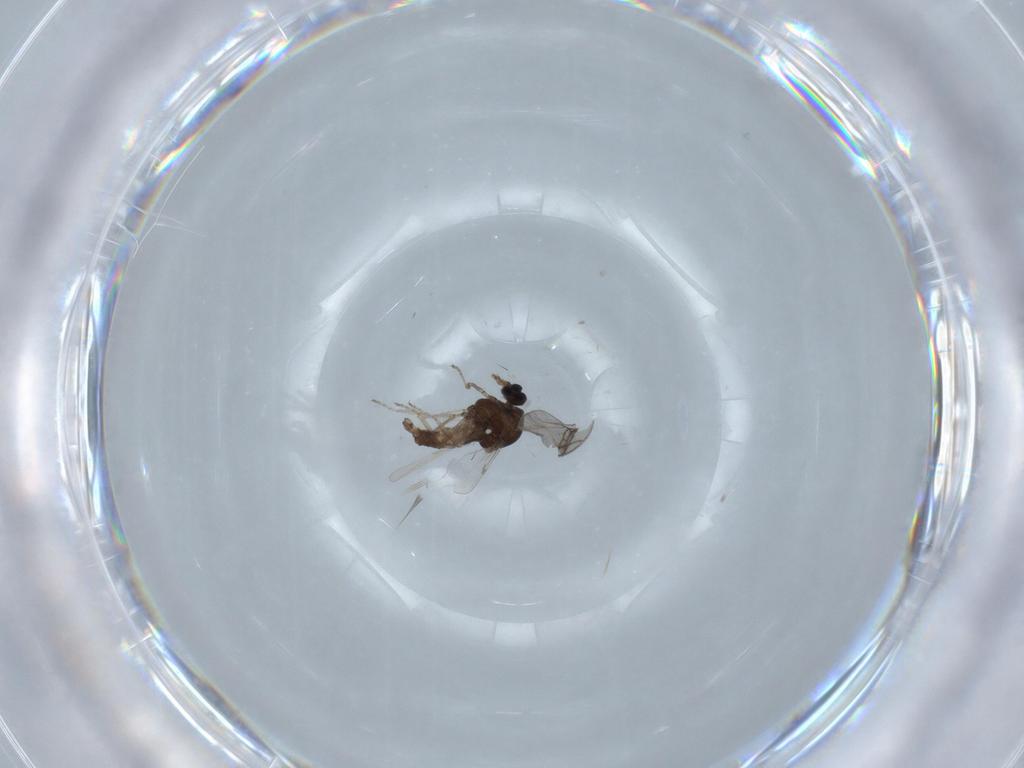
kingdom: Animalia
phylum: Arthropoda
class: Insecta
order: Diptera
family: Ceratopogonidae
